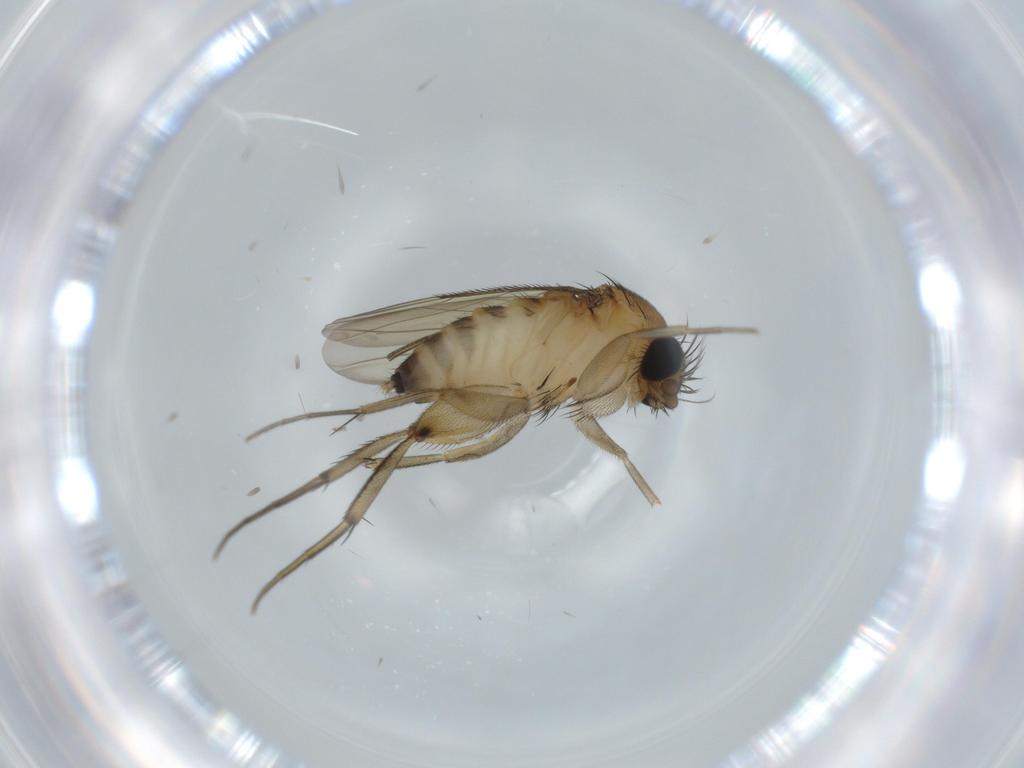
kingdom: Animalia
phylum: Arthropoda
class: Insecta
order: Diptera
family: Phoridae
